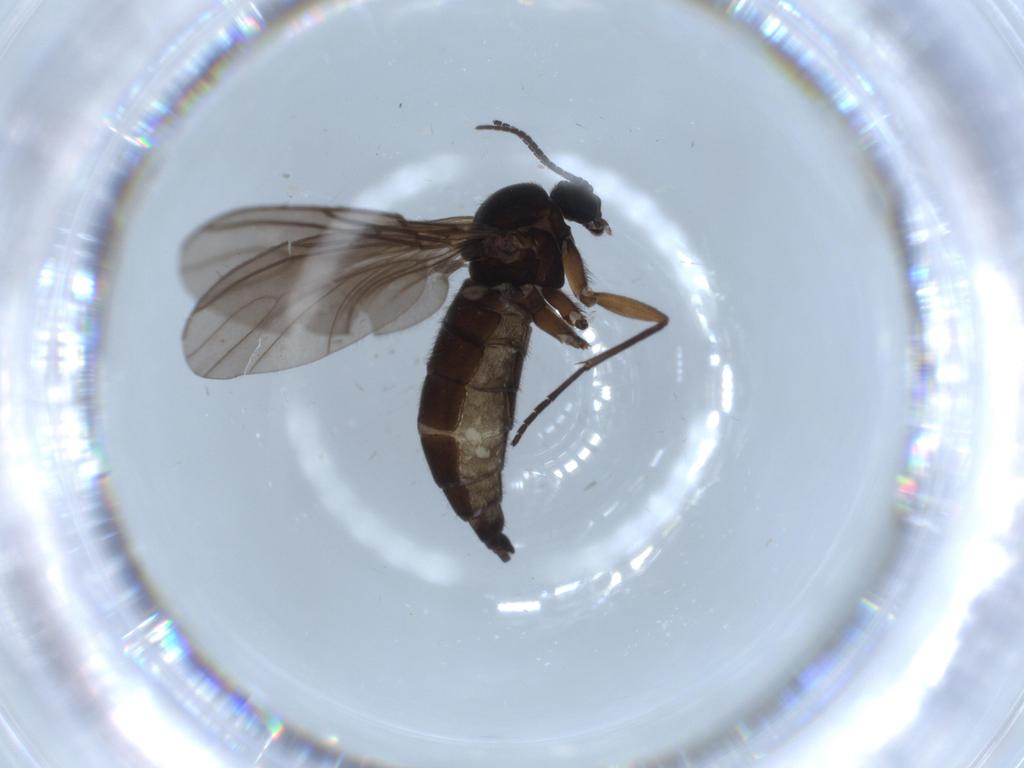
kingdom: Animalia
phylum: Arthropoda
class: Insecta
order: Diptera
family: Sciaridae
